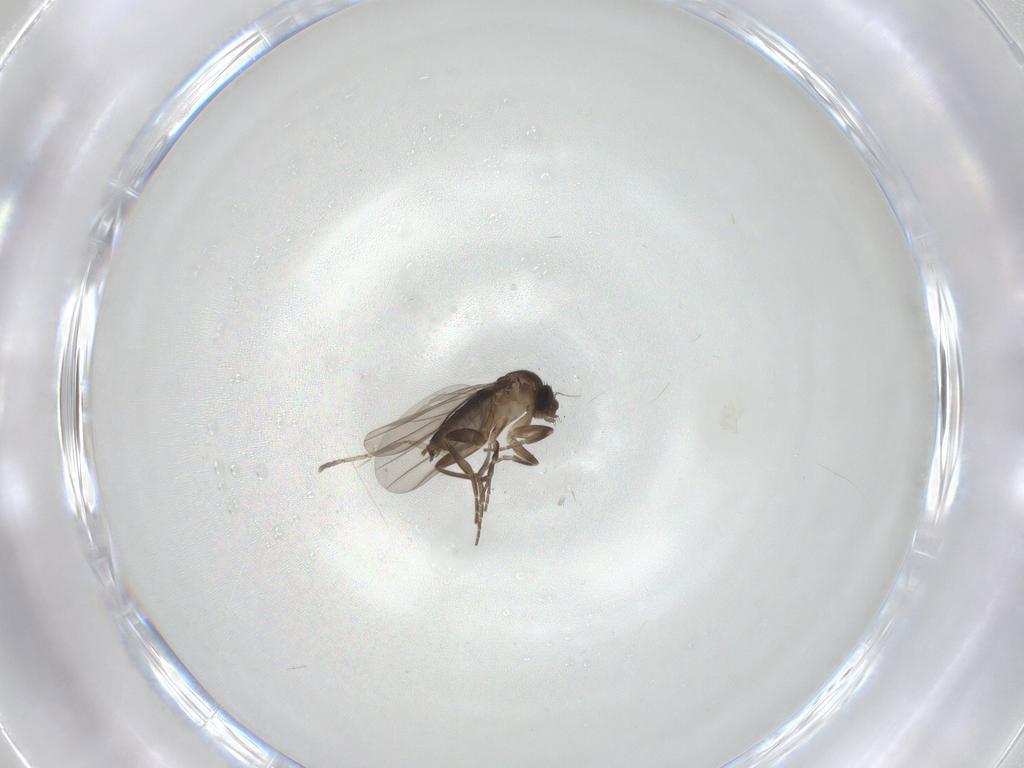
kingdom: Animalia
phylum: Arthropoda
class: Insecta
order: Diptera
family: Phoridae
